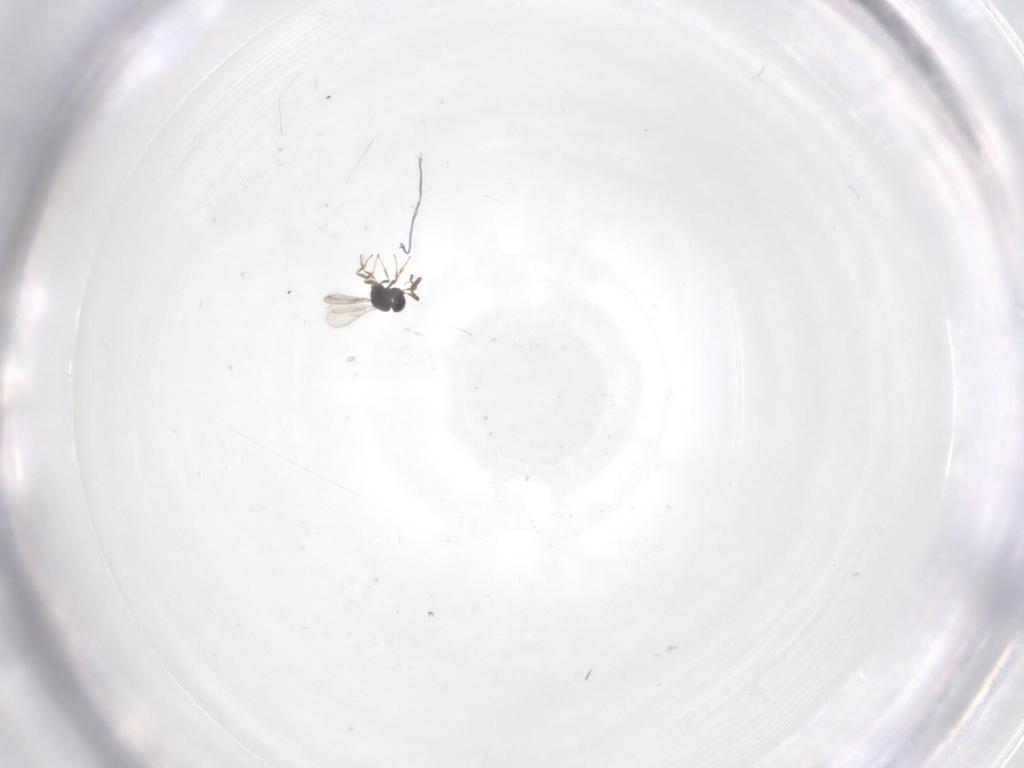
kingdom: Animalia
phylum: Arthropoda
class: Insecta
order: Hymenoptera
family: Scelionidae
